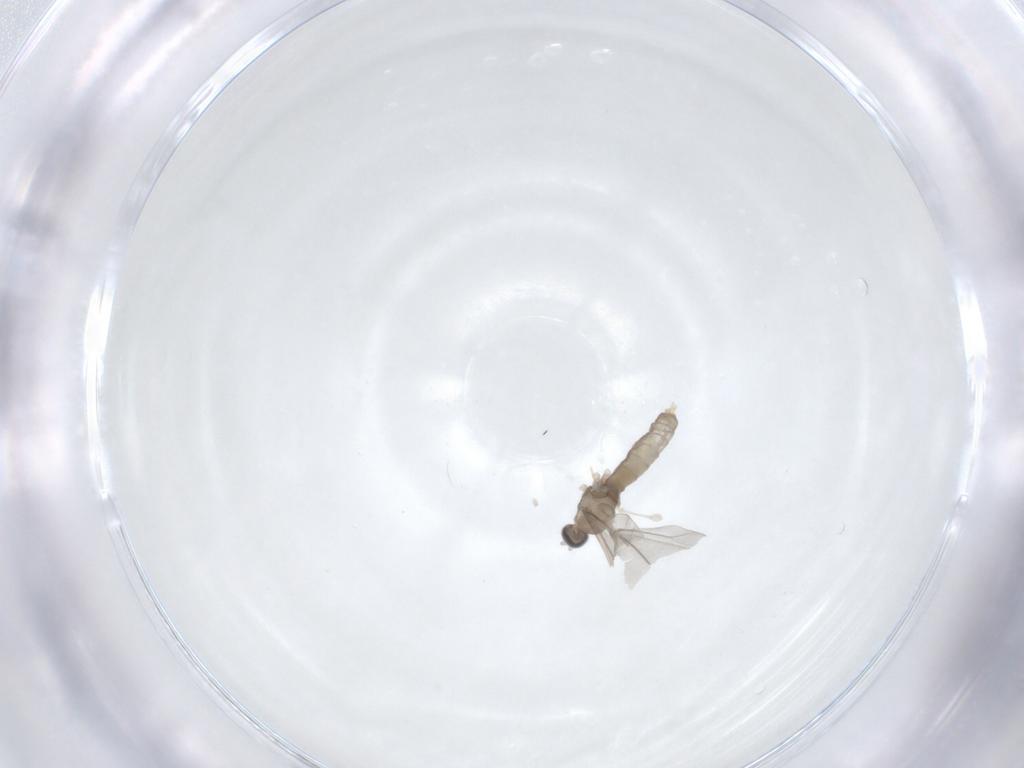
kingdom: Animalia
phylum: Arthropoda
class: Insecta
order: Diptera
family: Cecidomyiidae
